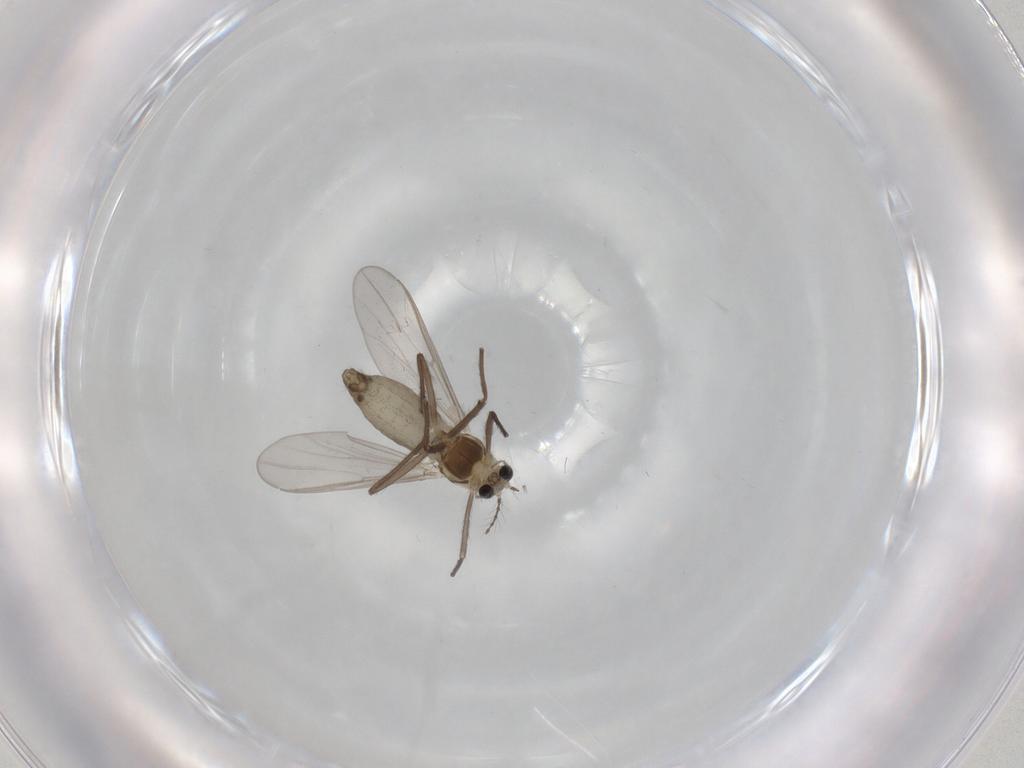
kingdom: Animalia
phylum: Arthropoda
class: Insecta
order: Diptera
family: Chironomidae
